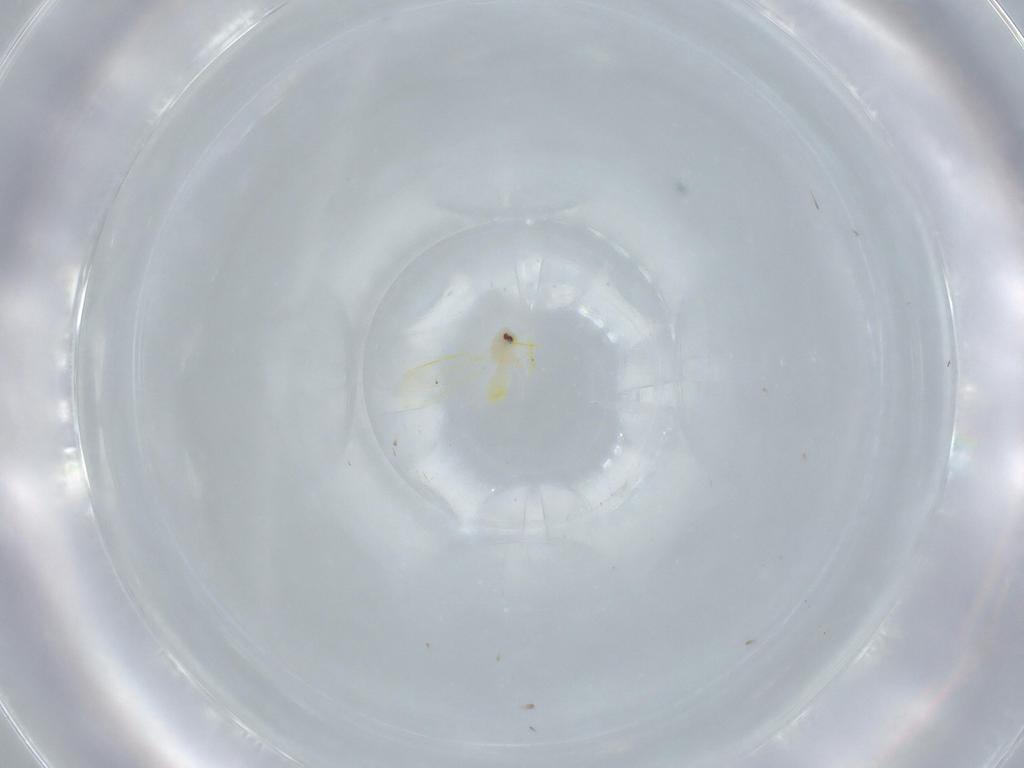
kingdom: Animalia
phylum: Arthropoda
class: Insecta
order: Hemiptera
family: Aleyrodidae
